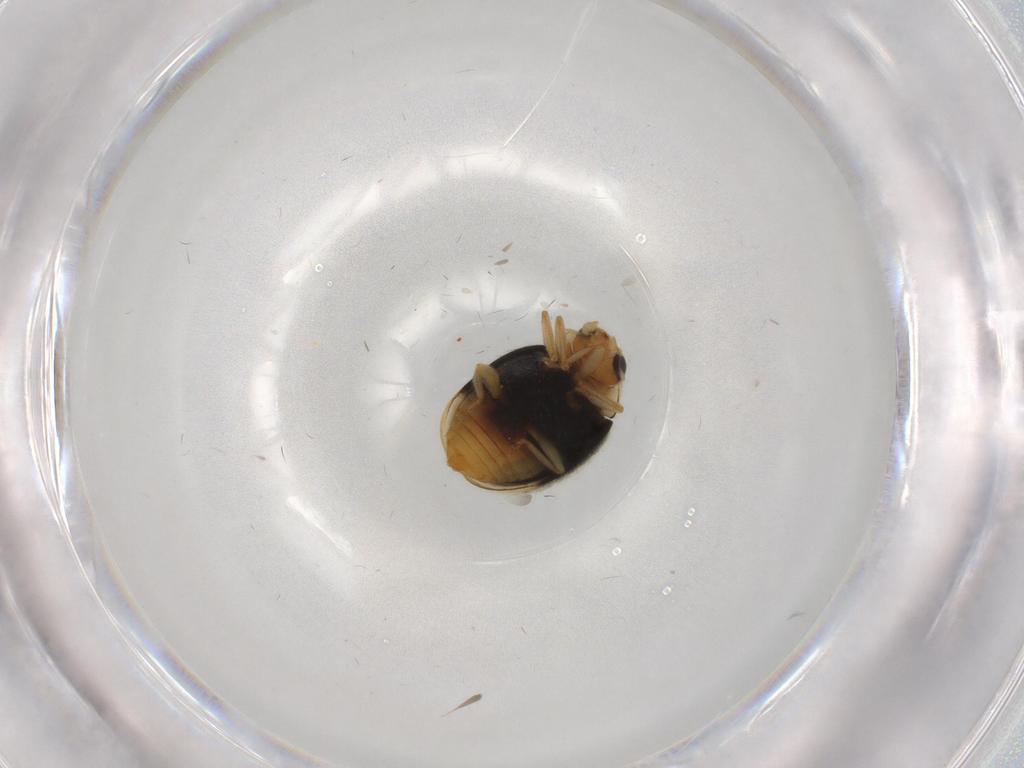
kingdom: Animalia
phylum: Arthropoda
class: Insecta
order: Coleoptera
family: Coccinellidae
